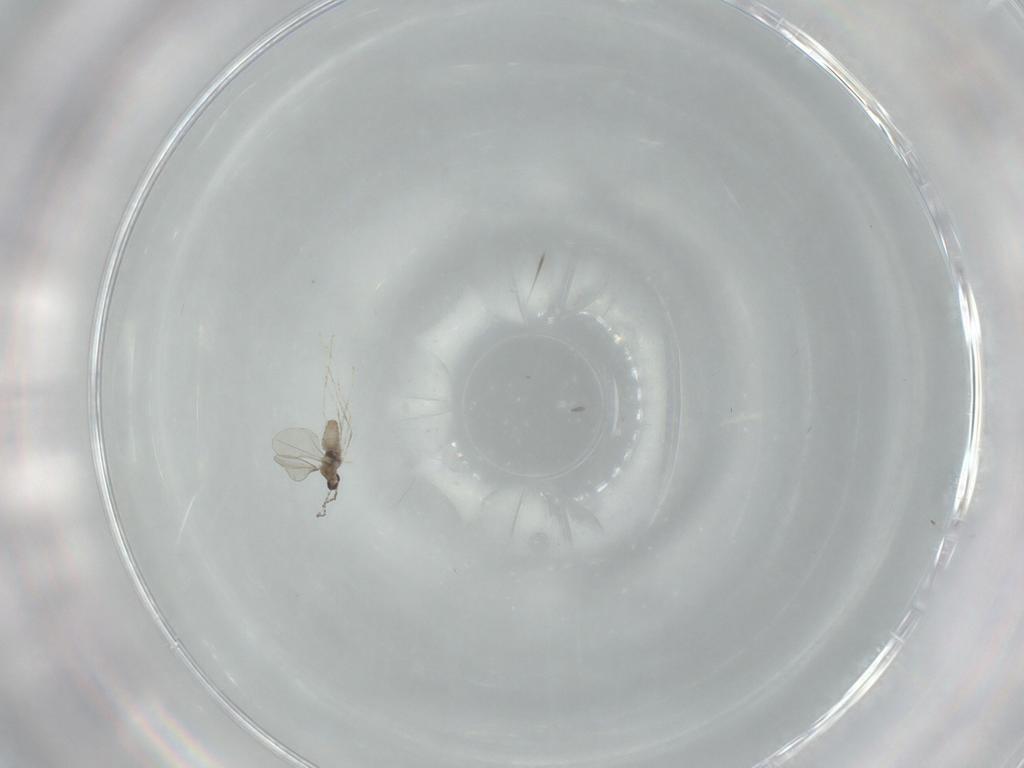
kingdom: Animalia
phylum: Arthropoda
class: Insecta
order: Diptera
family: Cecidomyiidae
